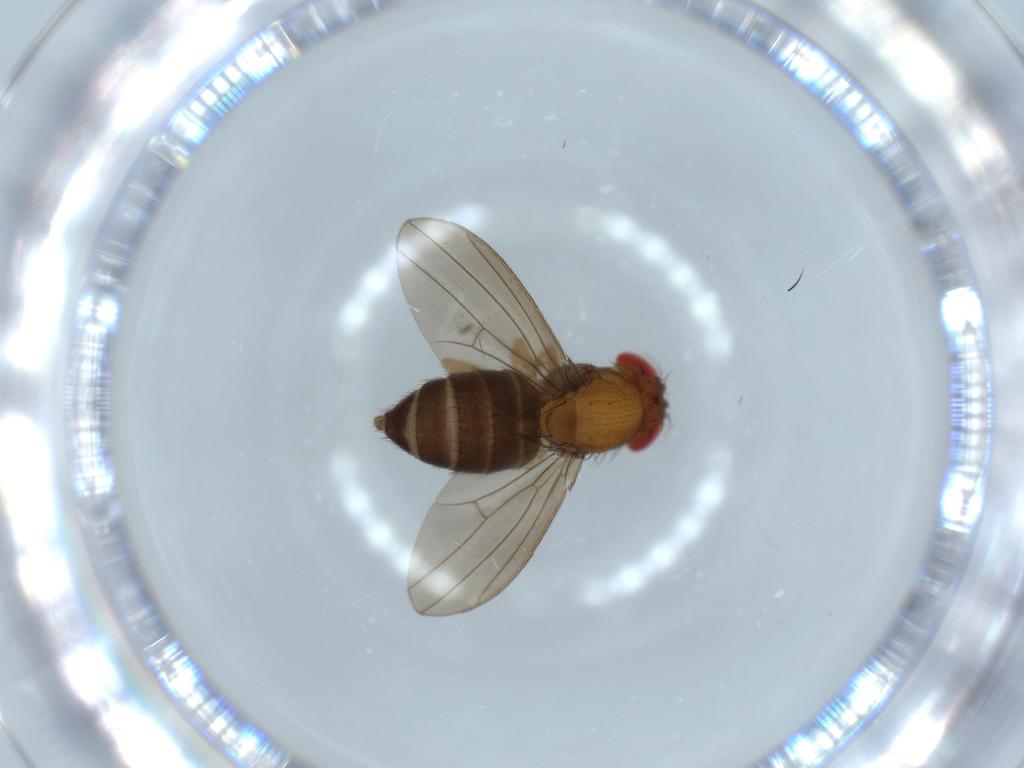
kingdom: Animalia
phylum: Arthropoda
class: Insecta
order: Diptera
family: Drosophilidae
